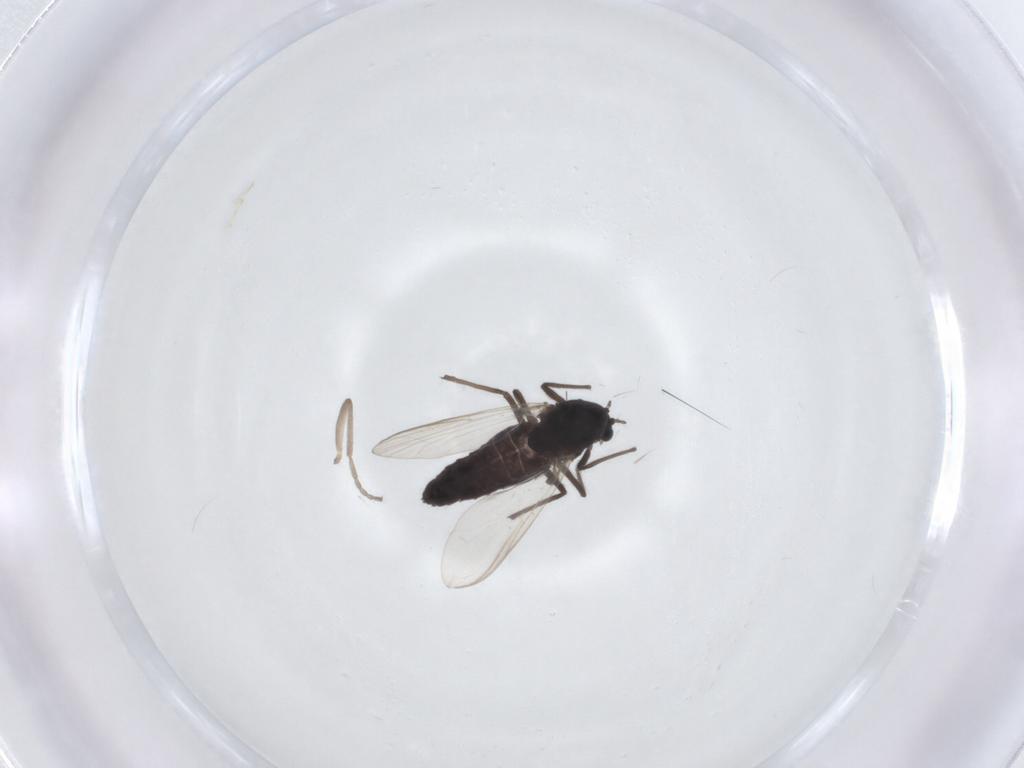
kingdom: Animalia
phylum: Arthropoda
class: Insecta
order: Diptera
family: Chironomidae
